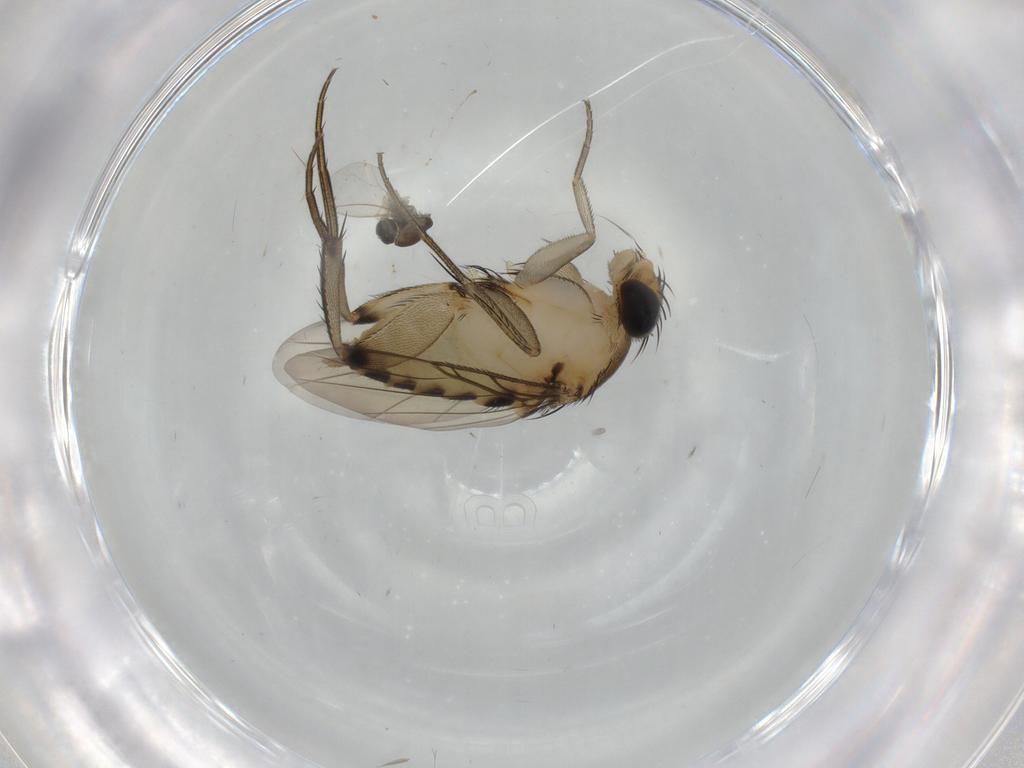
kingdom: Animalia
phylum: Arthropoda
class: Insecta
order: Diptera
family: Cecidomyiidae
